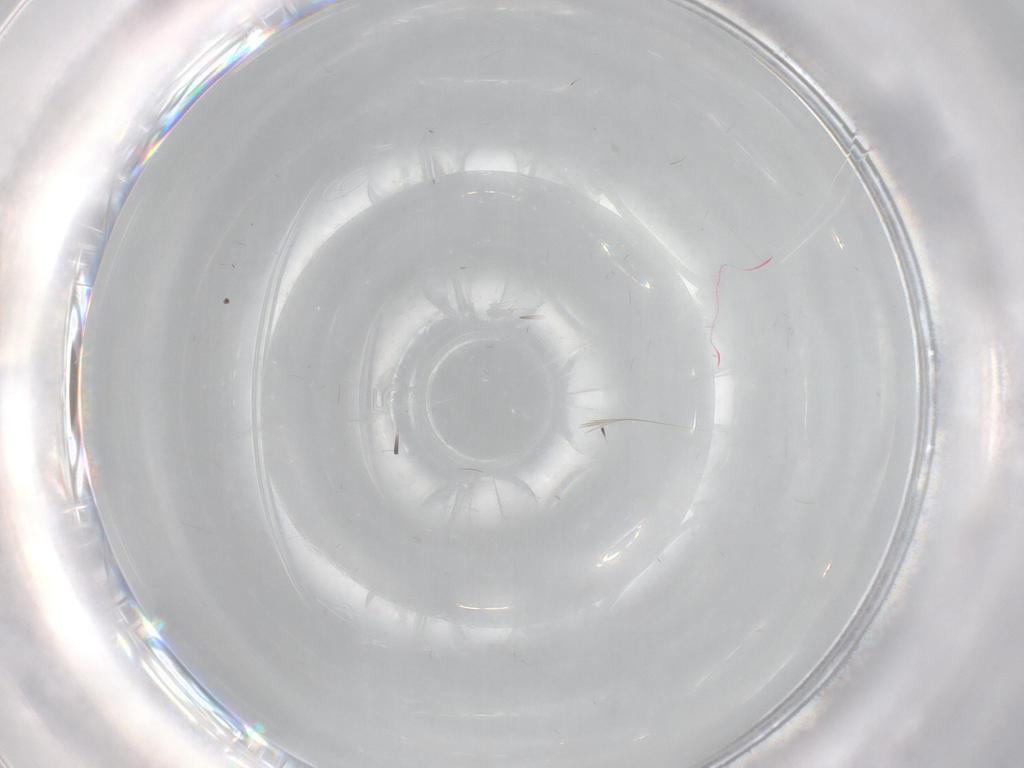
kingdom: Animalia
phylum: Arthropoda
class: Insecta
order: Diptera
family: Cecidomyiidae
